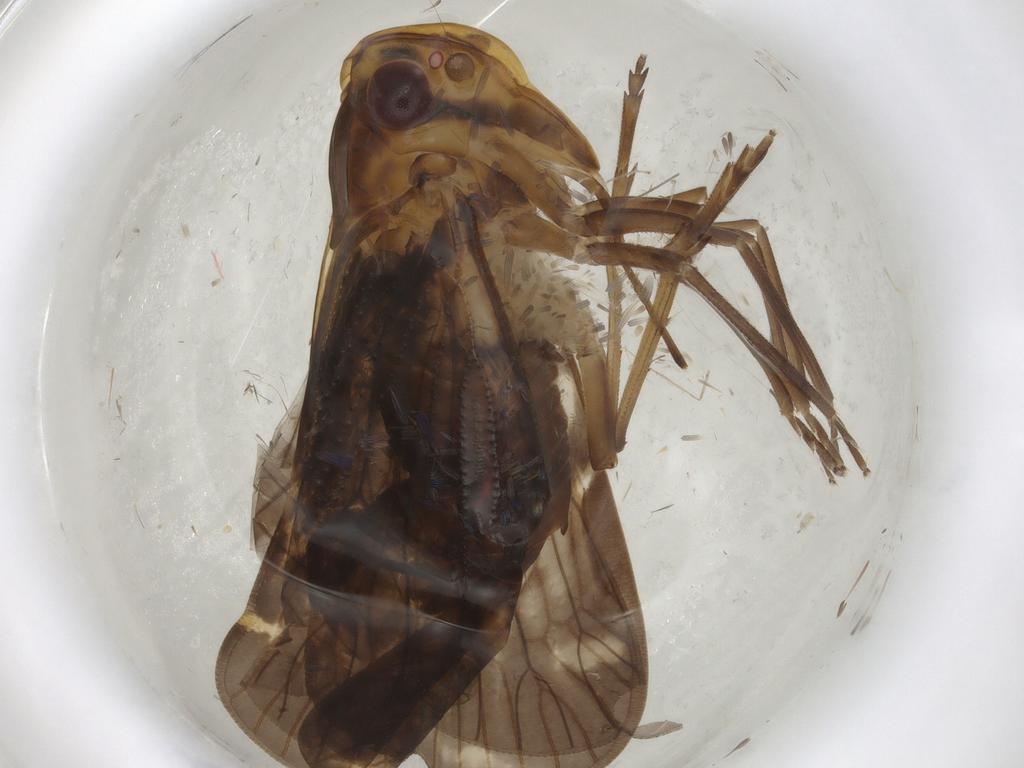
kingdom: Animalia
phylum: Arthropoda
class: Insecta
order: Hemiptera
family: Cixiidae
